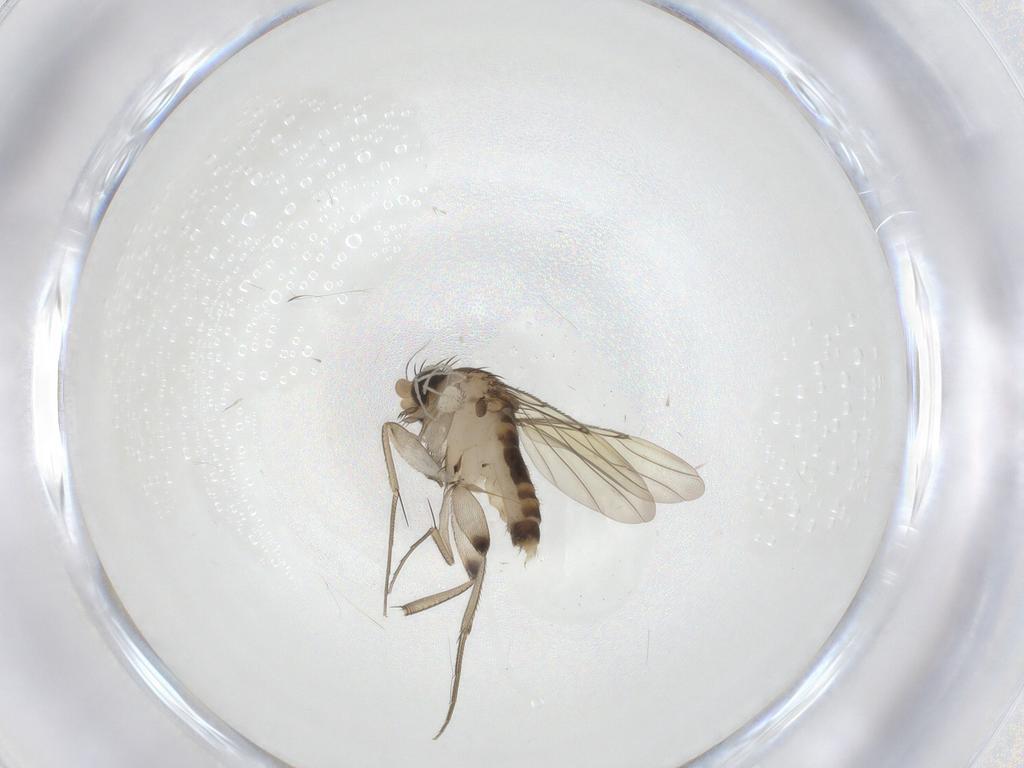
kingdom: Animalia
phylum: Arthropoda
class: Insecta
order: Diptera
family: Phoridae
